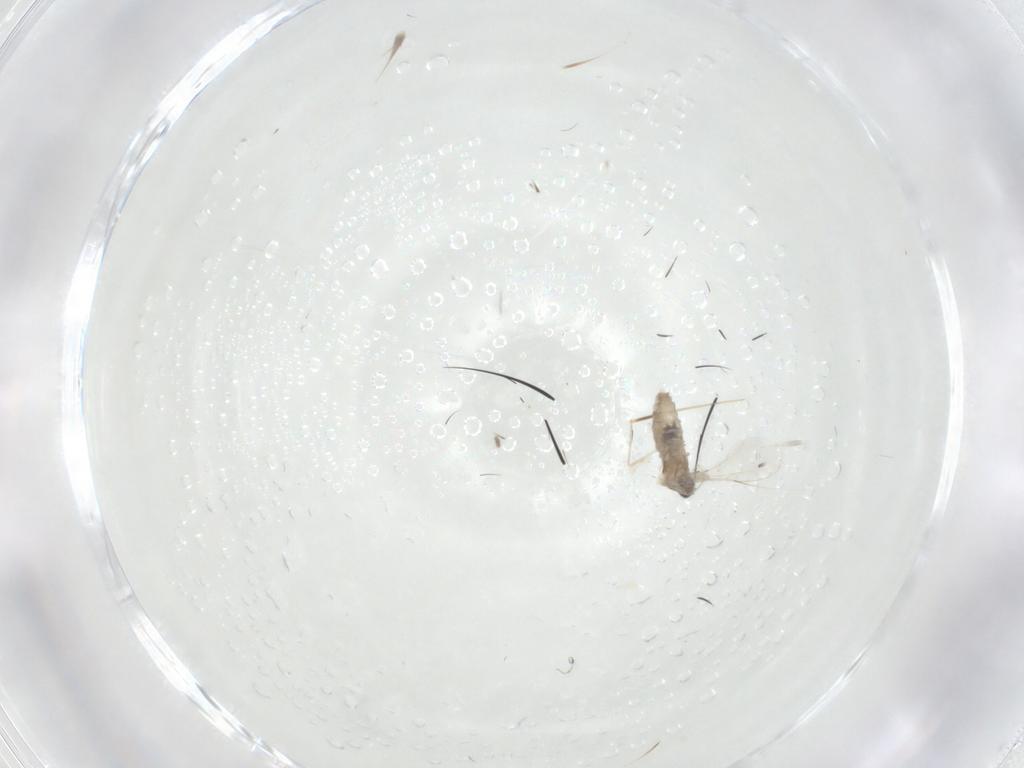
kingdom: Animalia
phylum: Arthropoda
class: Insecta
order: Diptera
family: Cecidomyiidae
